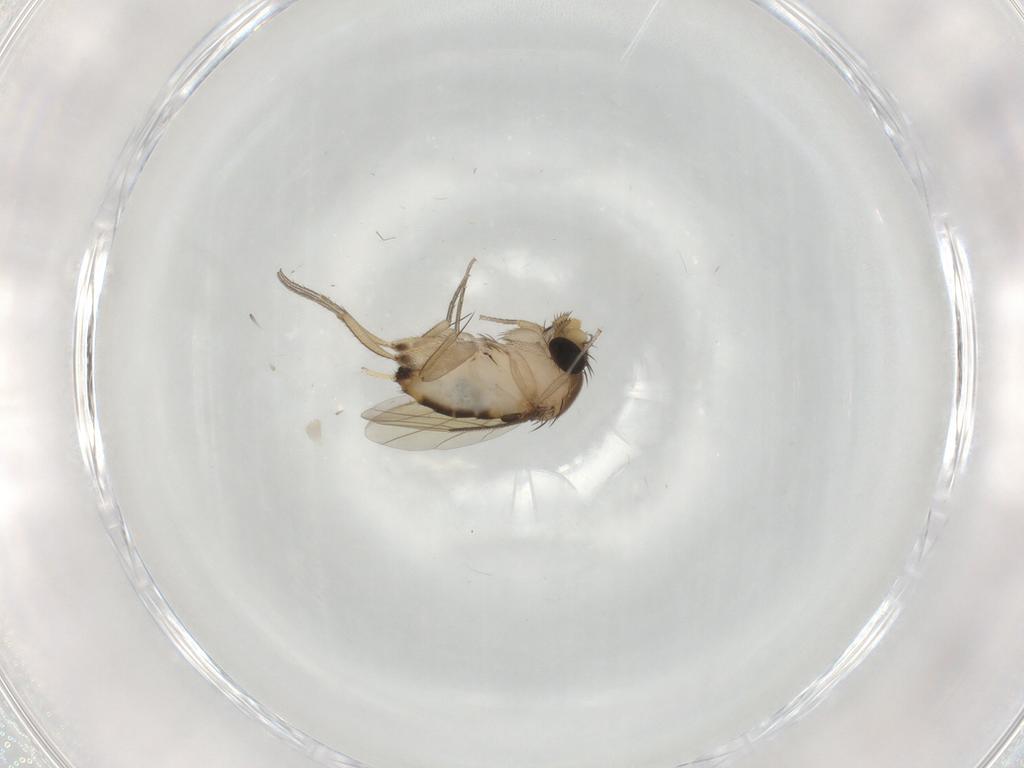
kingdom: Animalia
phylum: Arthropoda
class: Insecta
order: Diptera
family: Phoridae
